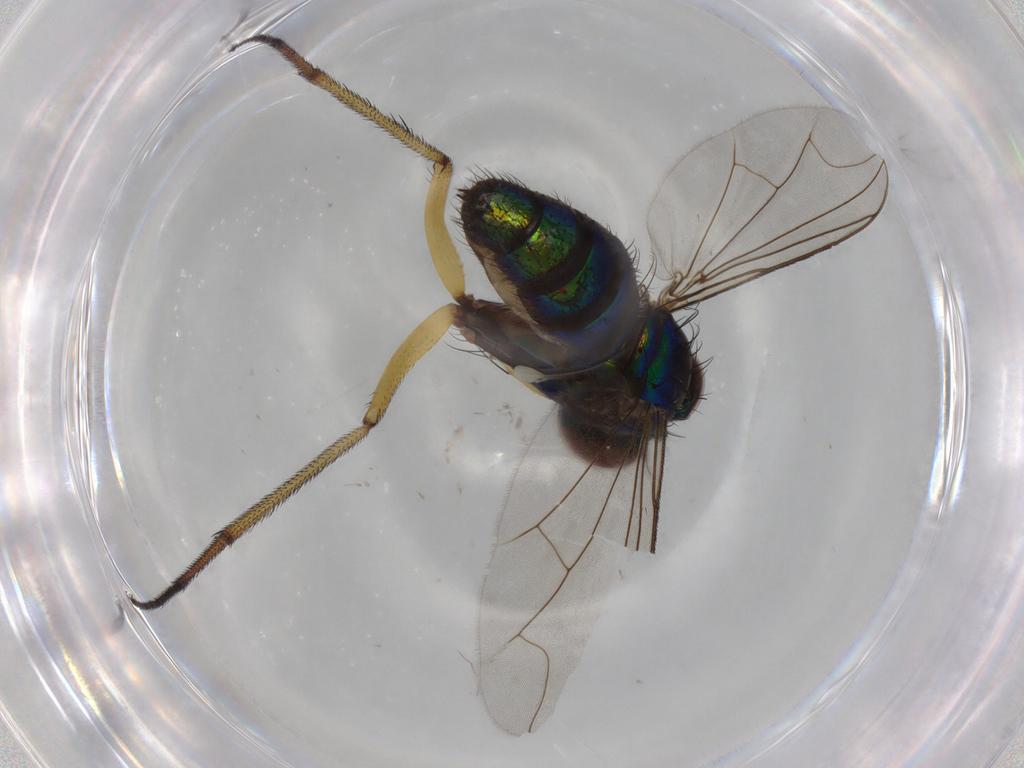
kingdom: Animalia
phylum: Arthropoda
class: Insecta
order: Diptera
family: Dolichopodidae
